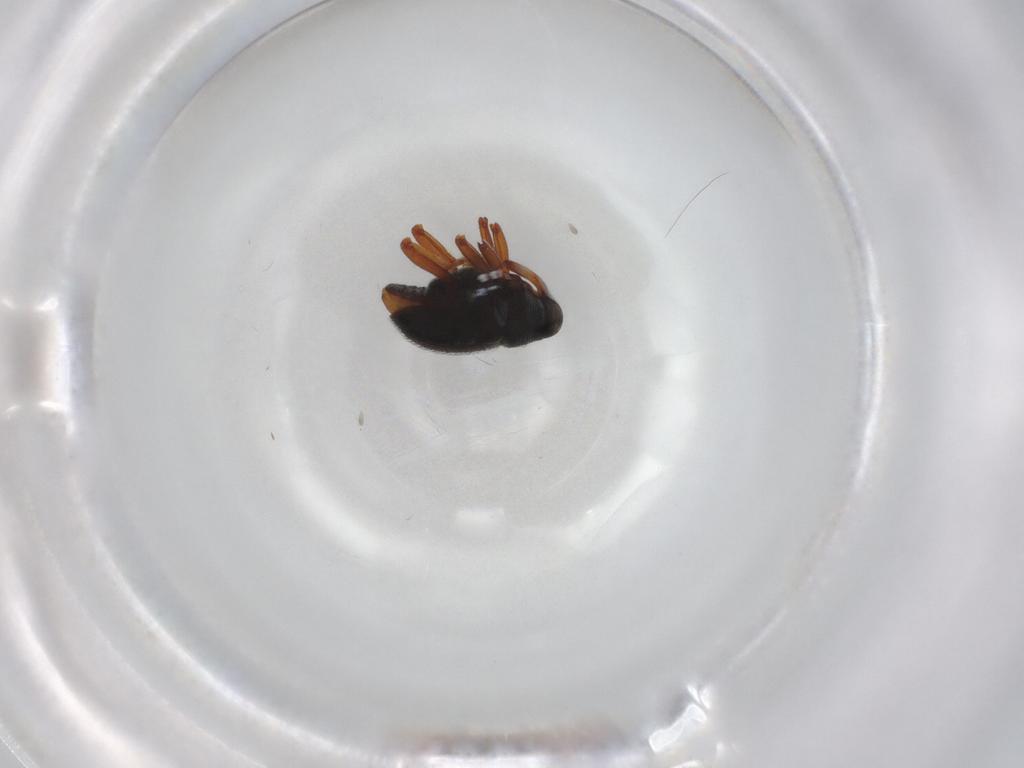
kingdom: Animalia
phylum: Arthropoda
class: Insecta
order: Coleoptera
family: Curculionidae
